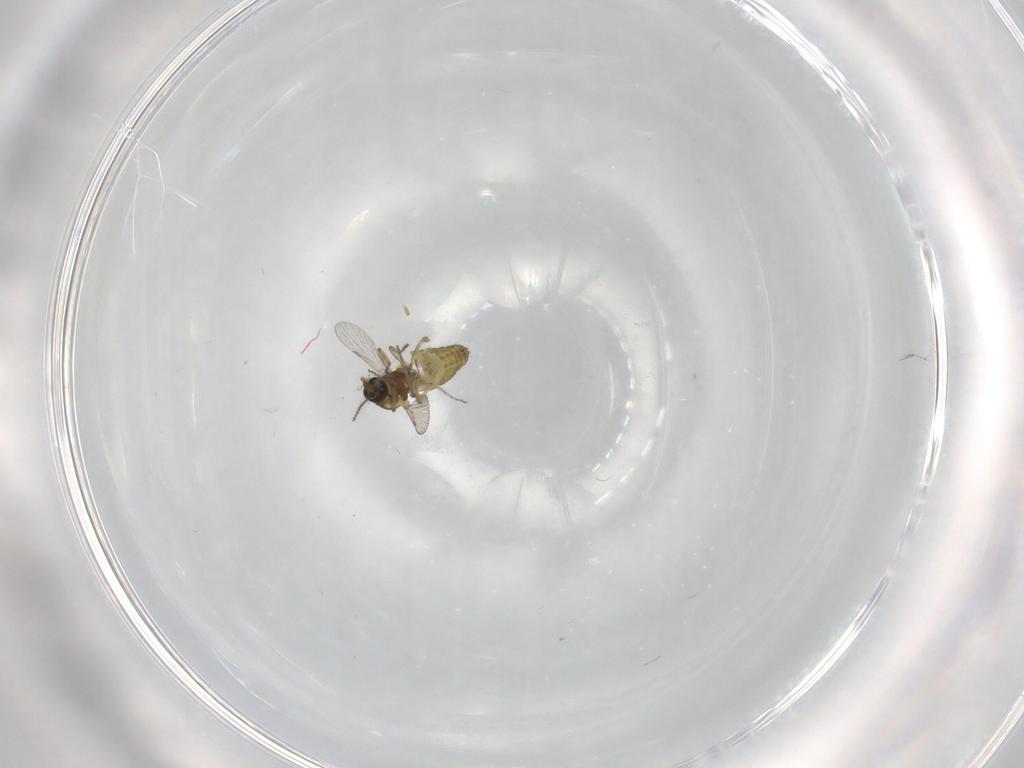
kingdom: Animalia
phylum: Arthropoda
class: Insecta
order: Diptera
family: Ceratopogonidae
